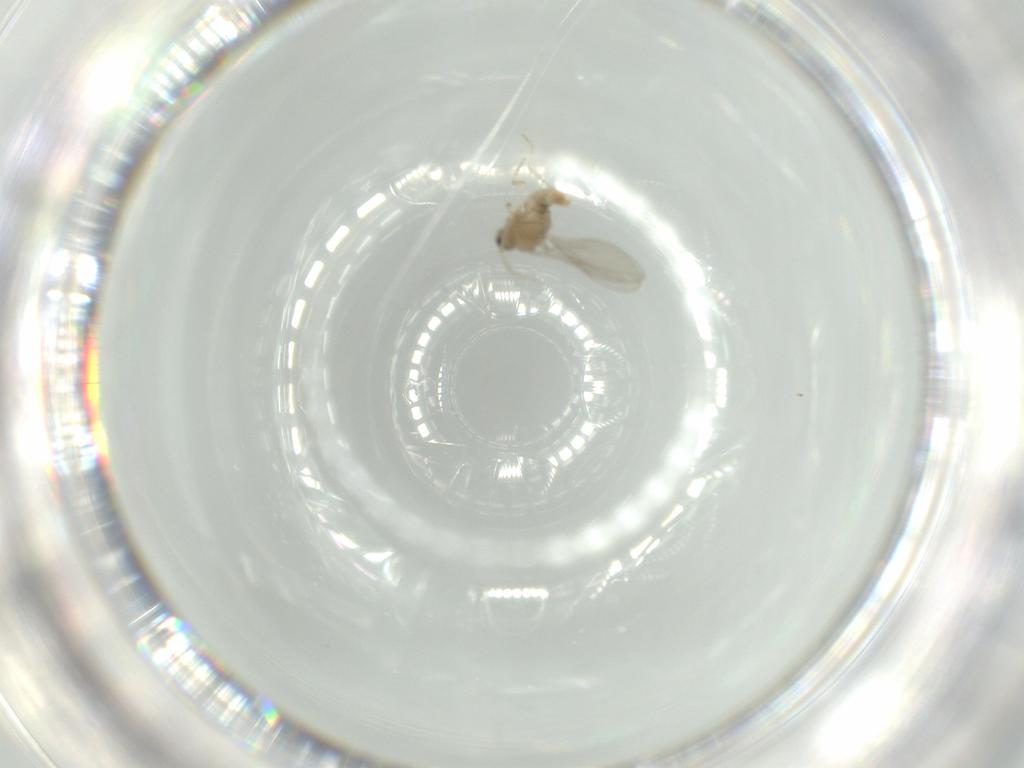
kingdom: Animalia
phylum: Arthropoda
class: Insecta
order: Diptera
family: Cecidomyiidae
